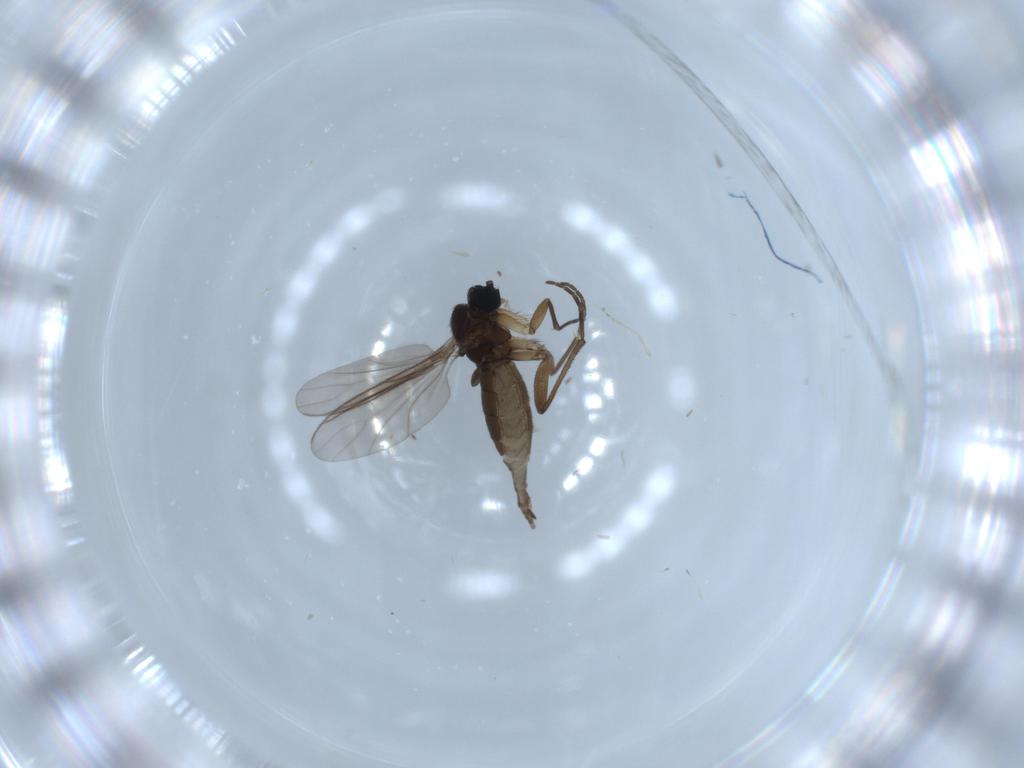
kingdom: Animalia
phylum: Arthropoda
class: Insecta
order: Diptera
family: Sciaridae
